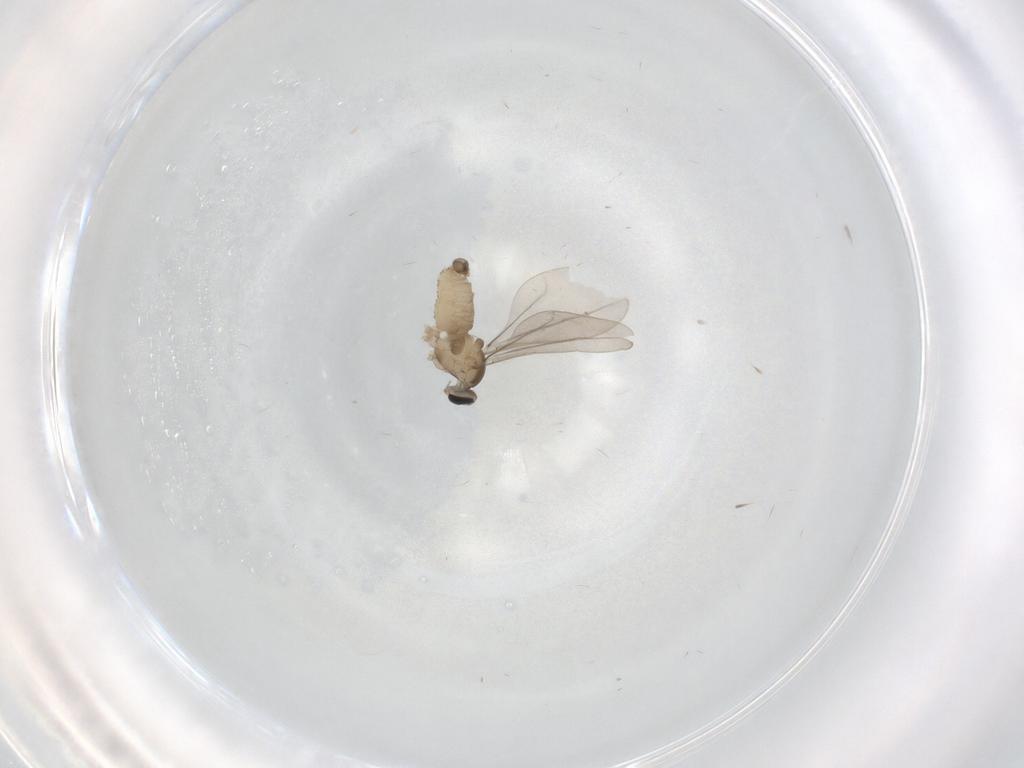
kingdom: Animalia
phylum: Arthropoda
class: Insecta
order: Diptera
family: Cecidomyiidae
